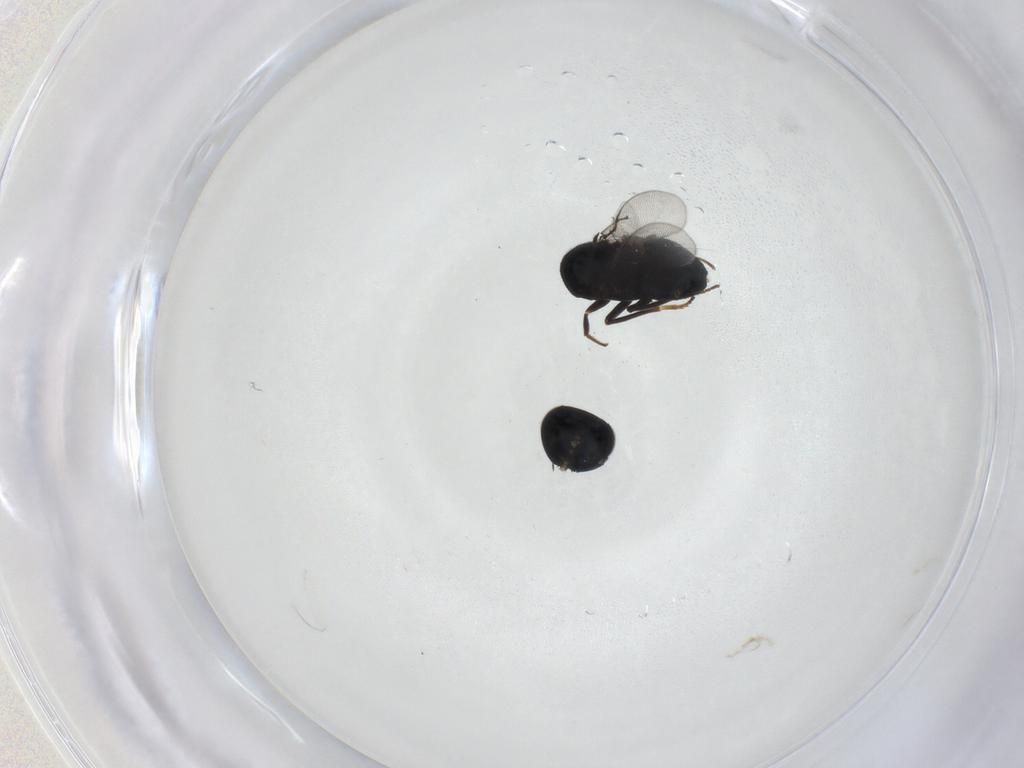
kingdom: Animalia
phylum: Arthropoda
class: Insecta
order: Hymenoptera
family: Encyrtidae
